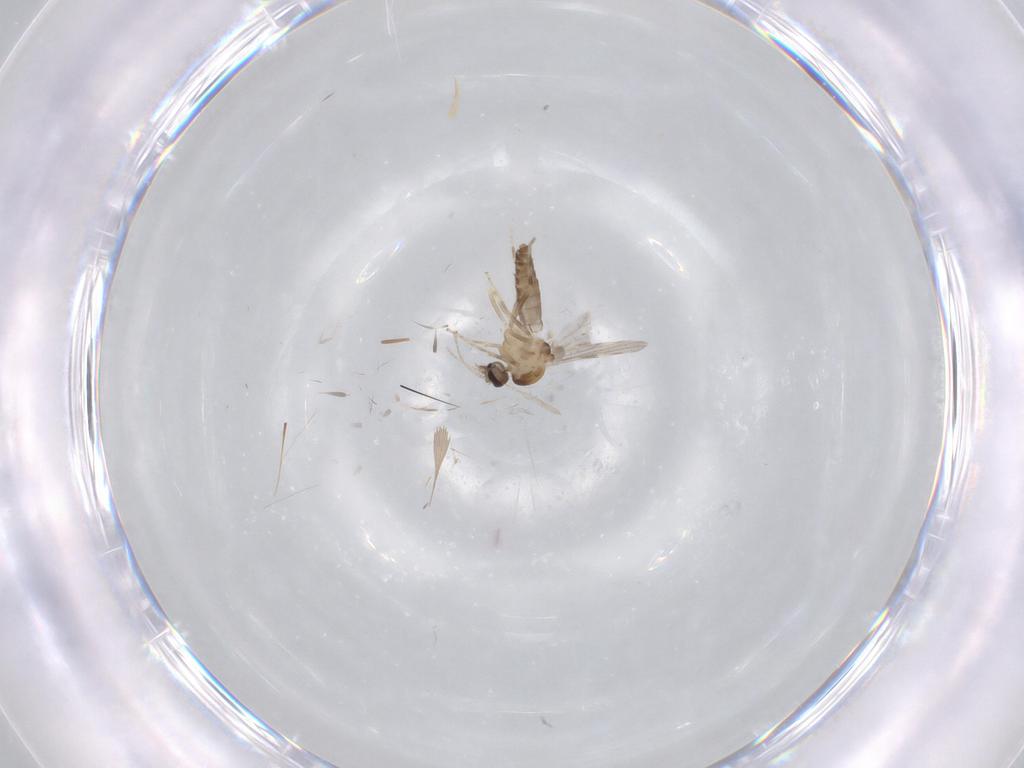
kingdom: Animalia
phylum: Arthropoda
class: Insecta
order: Diptera
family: Ceratopogonidae
